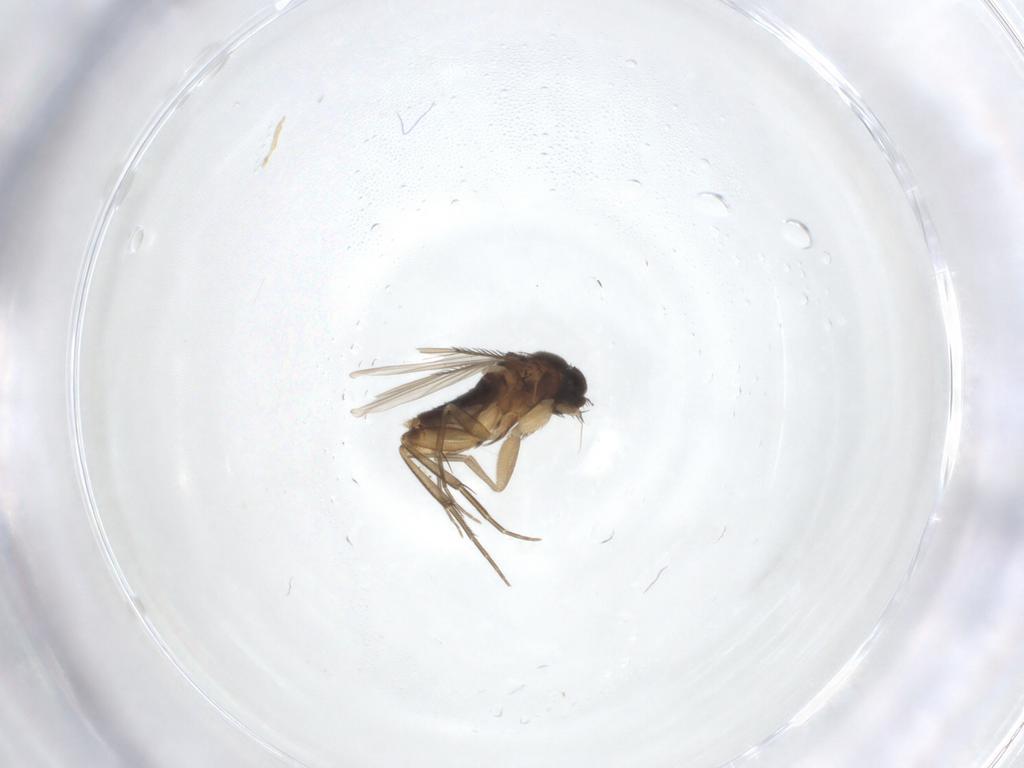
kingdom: Animalia
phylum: Arthropoda
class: Insecta
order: Diptera
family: Phoridae
